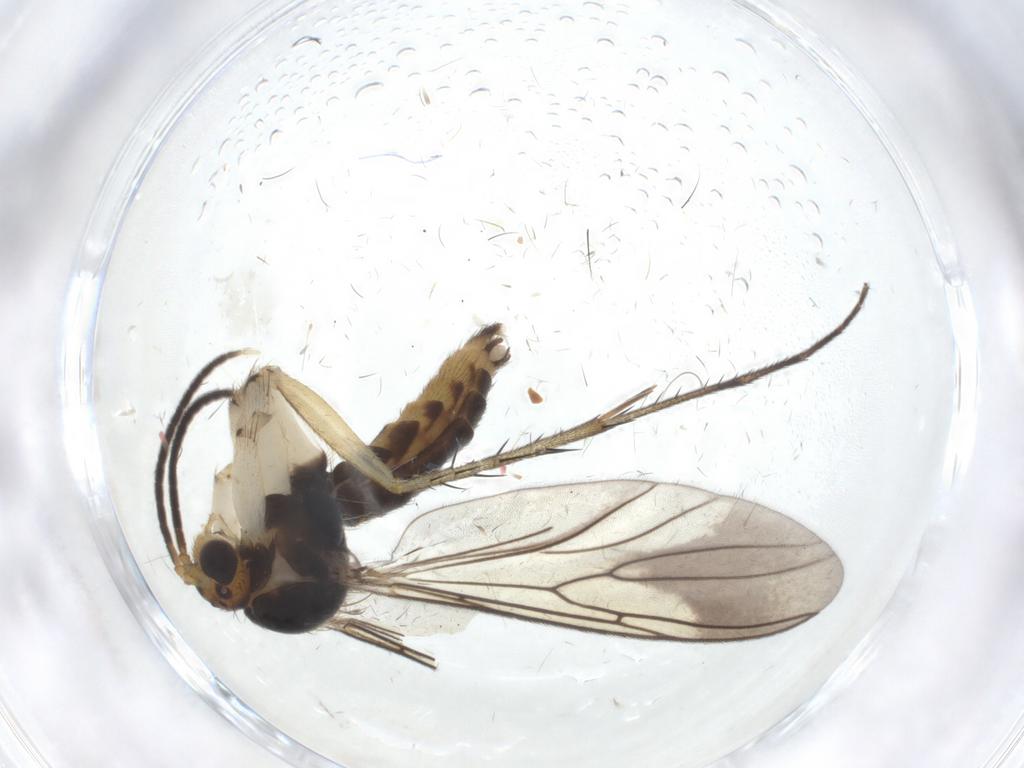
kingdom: Animalia
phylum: Arthropoda
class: Insecta
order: Diptera
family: Mycetophilidae
